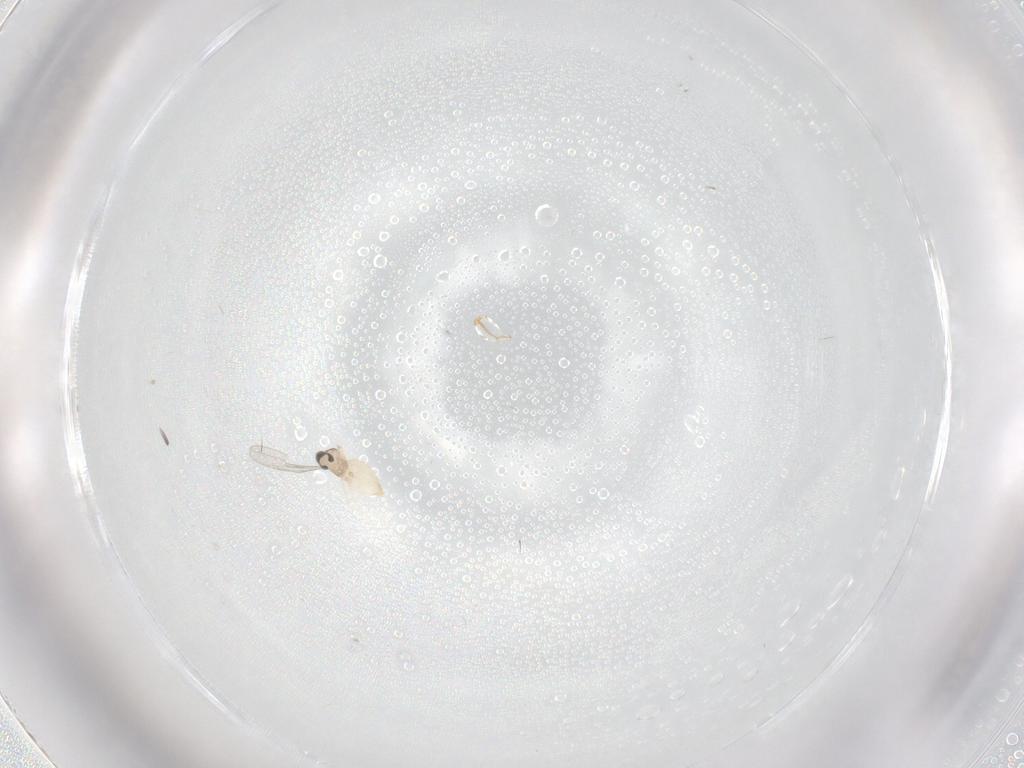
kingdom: Animalia
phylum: Arthropoda
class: Insecta
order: Diptera
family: Cecidomyiidae
